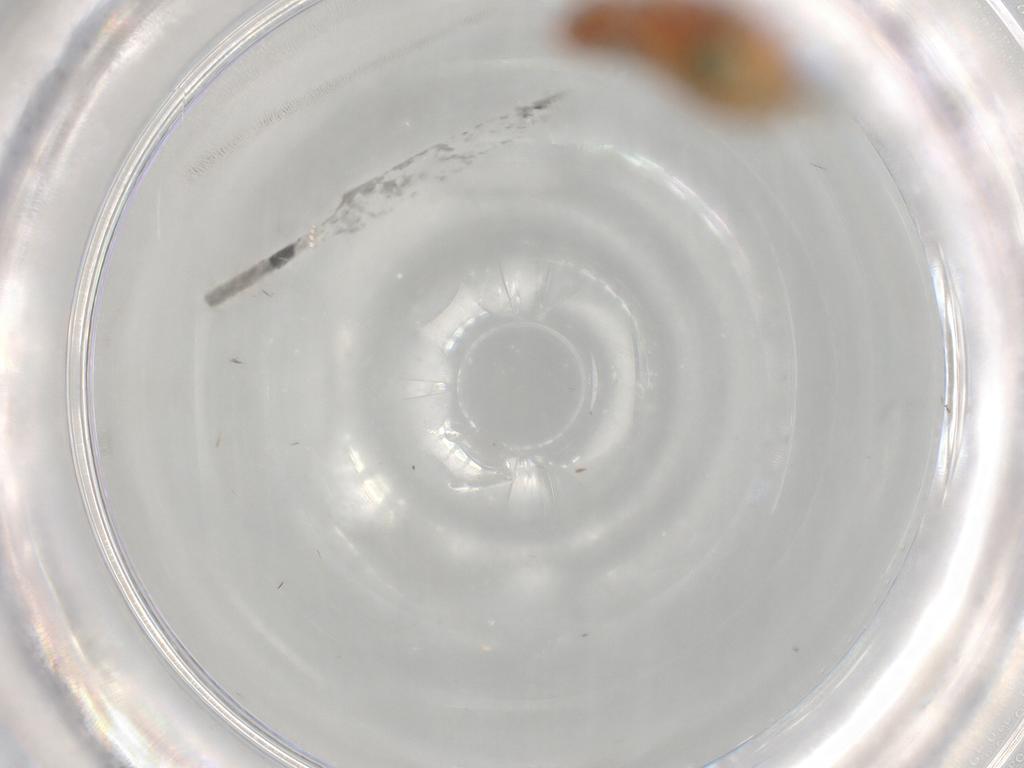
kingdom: Animalia
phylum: Arthropoda
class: Insecta
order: Hemiptera
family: Cicadellidae
